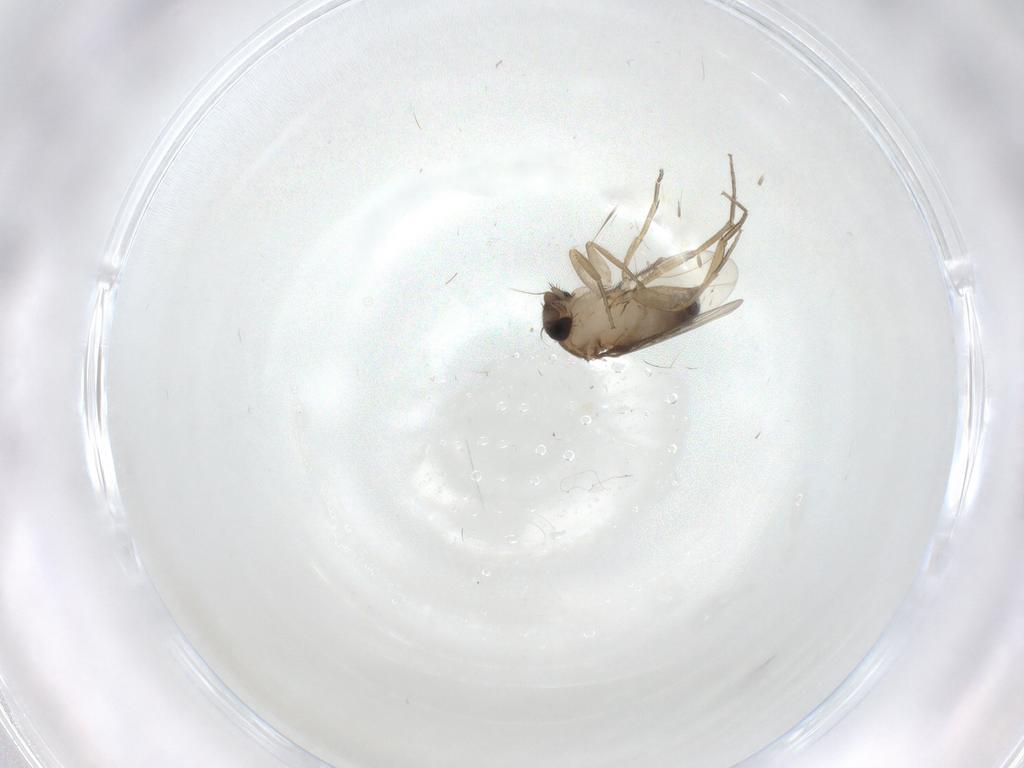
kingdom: Animalia
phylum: Arthropoda
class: Insecta
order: Diptera
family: Phoridae
